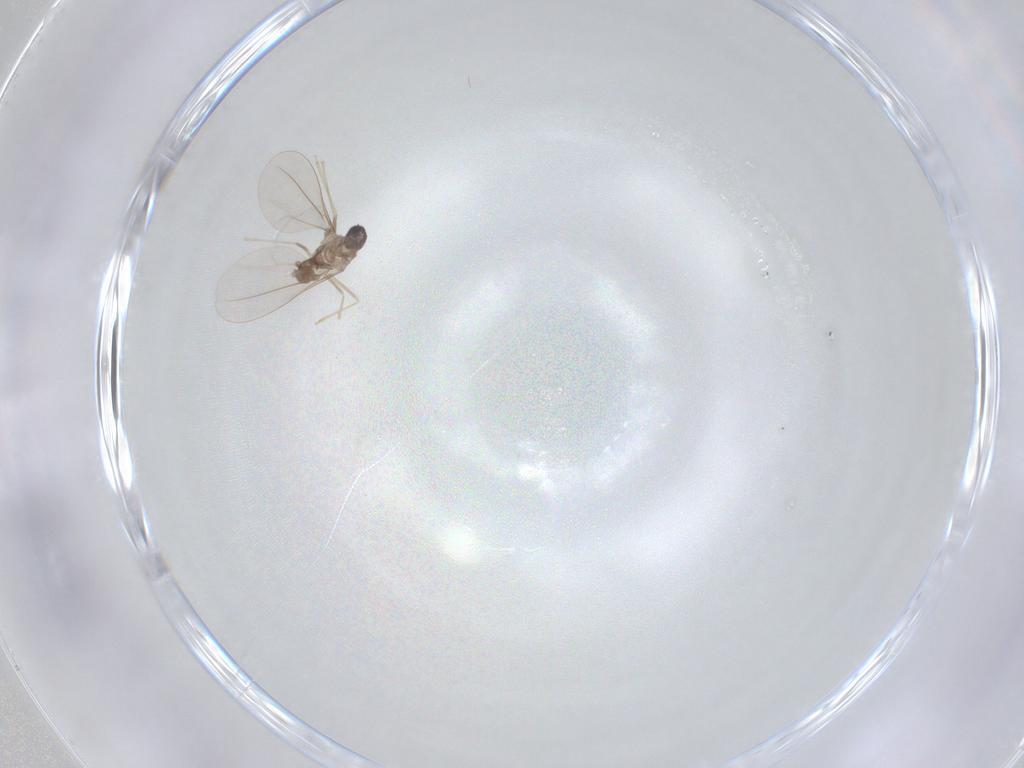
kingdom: Animalia
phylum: Arthropoda
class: Insecta
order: Diptera
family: Cecidomyiidae
